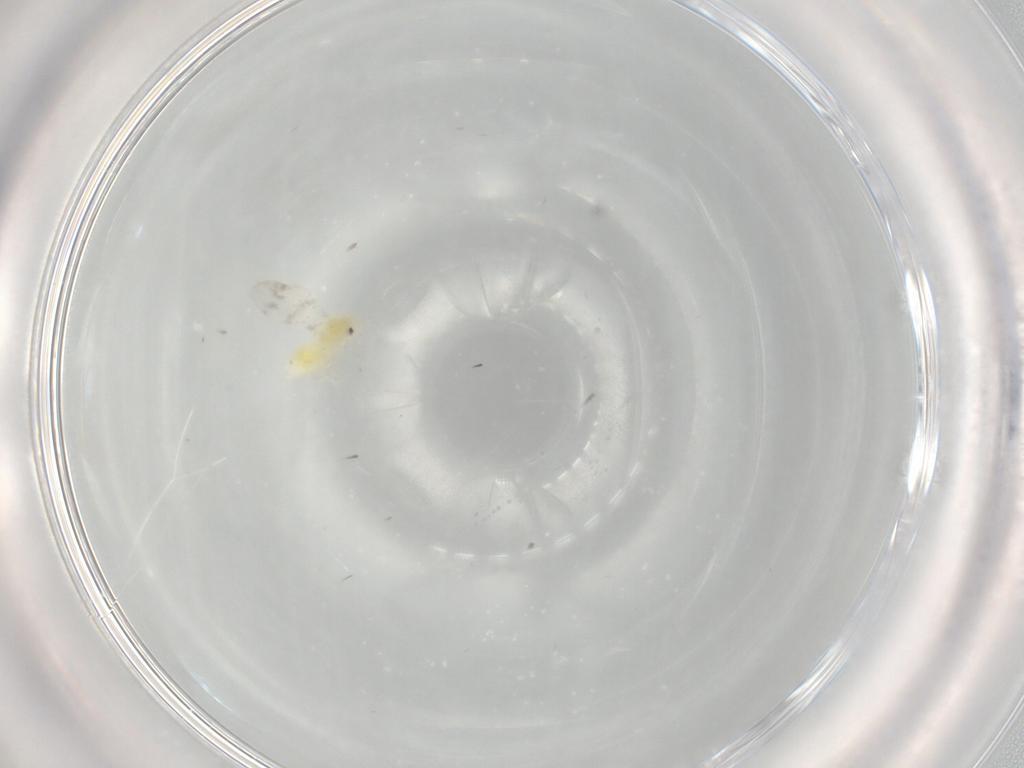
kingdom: Animalia
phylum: Arthropoda
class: Insecta
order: Hemiptera
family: Aleyrodidae
